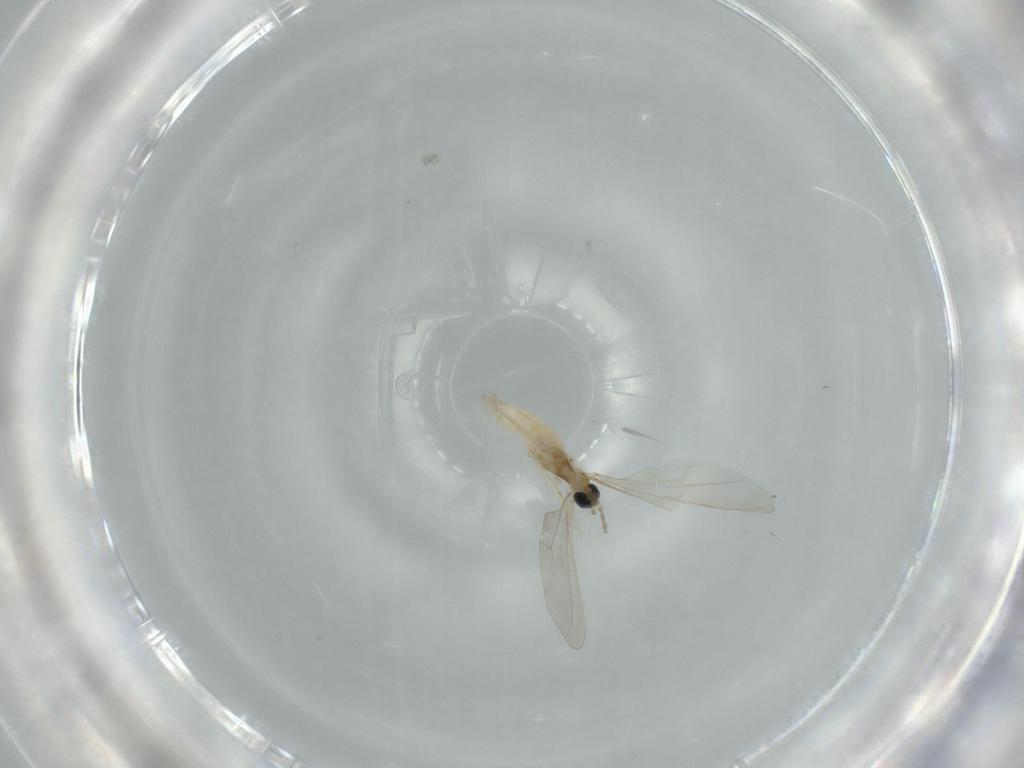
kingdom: Animalia
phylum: Arthropoda
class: Insecta
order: Diptera
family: Cecidomyiidae
